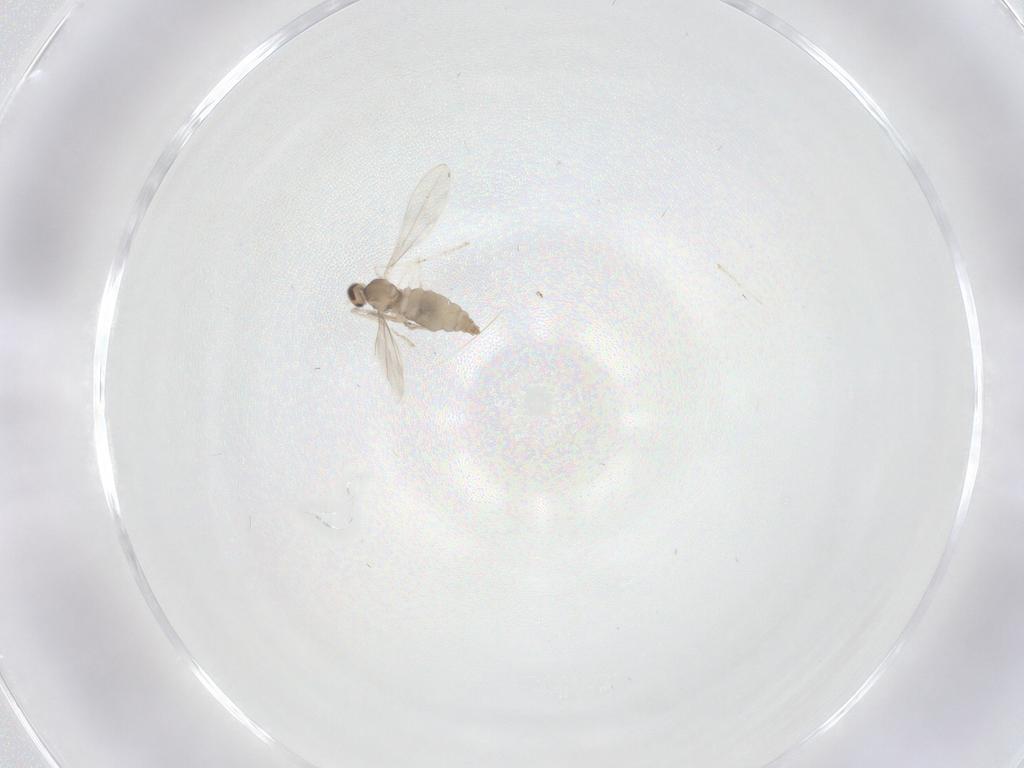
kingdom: Animalia
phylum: Arthropoda
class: Insecta
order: Diptera
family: Cecidomyiidae
